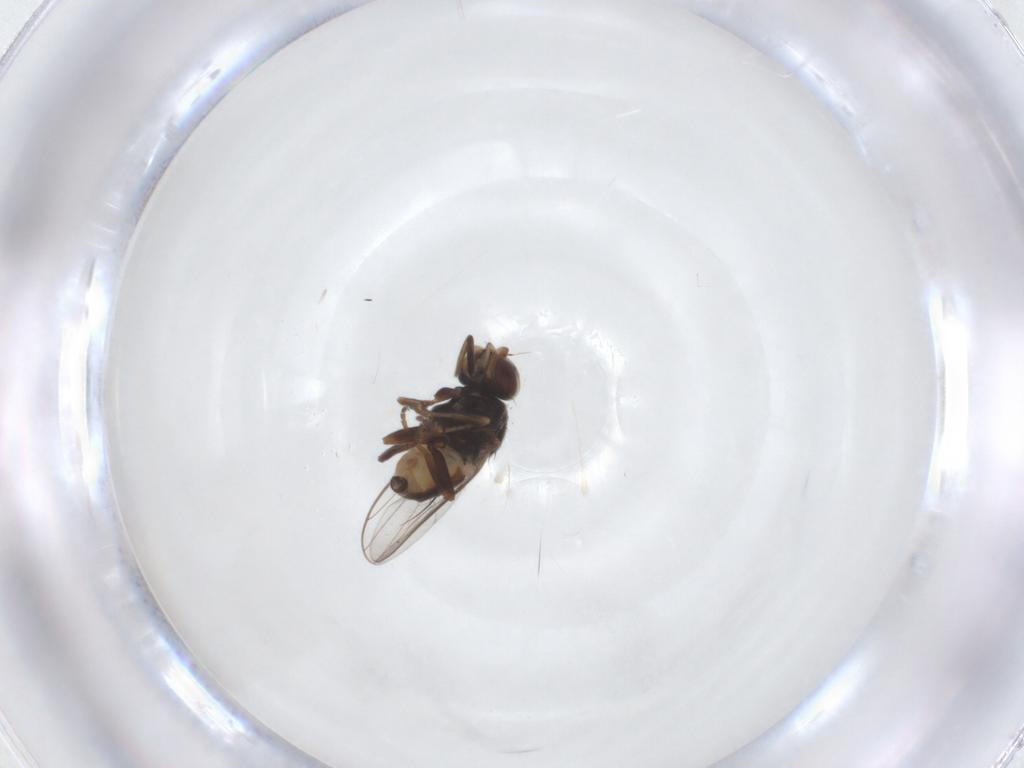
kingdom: Animalia
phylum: Arthropoda
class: Insecta
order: Diptera
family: Chloropidae
